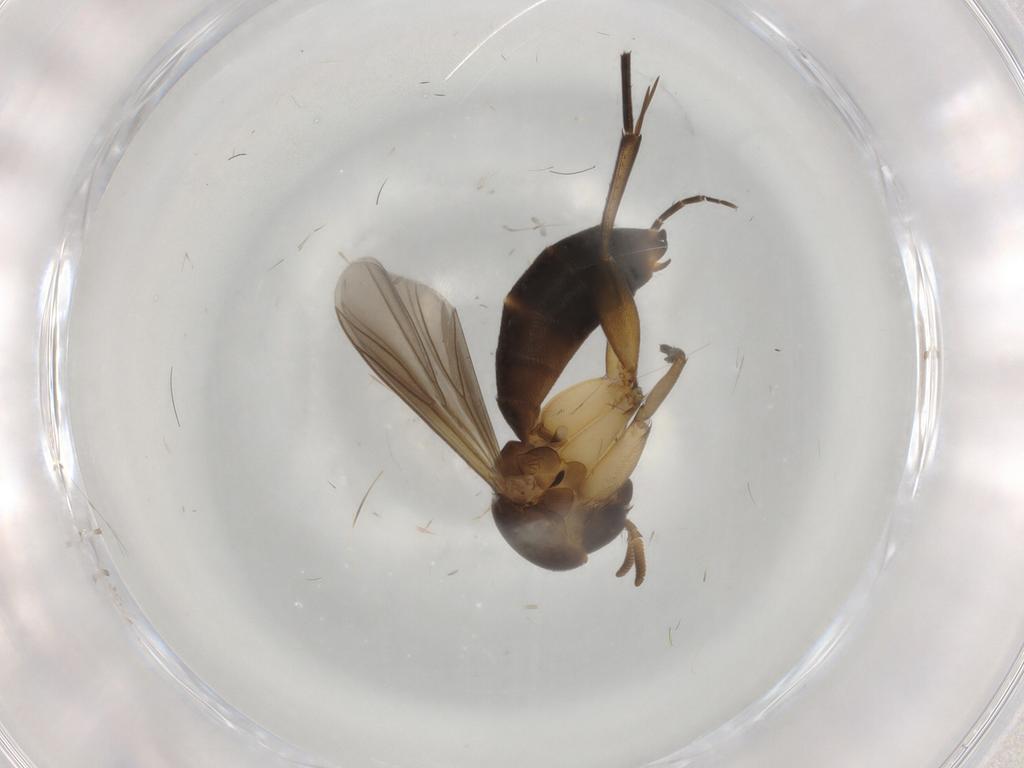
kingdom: Animalia
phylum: Arthropoda
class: Insecta
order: Diptera
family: Mycetophilidae
